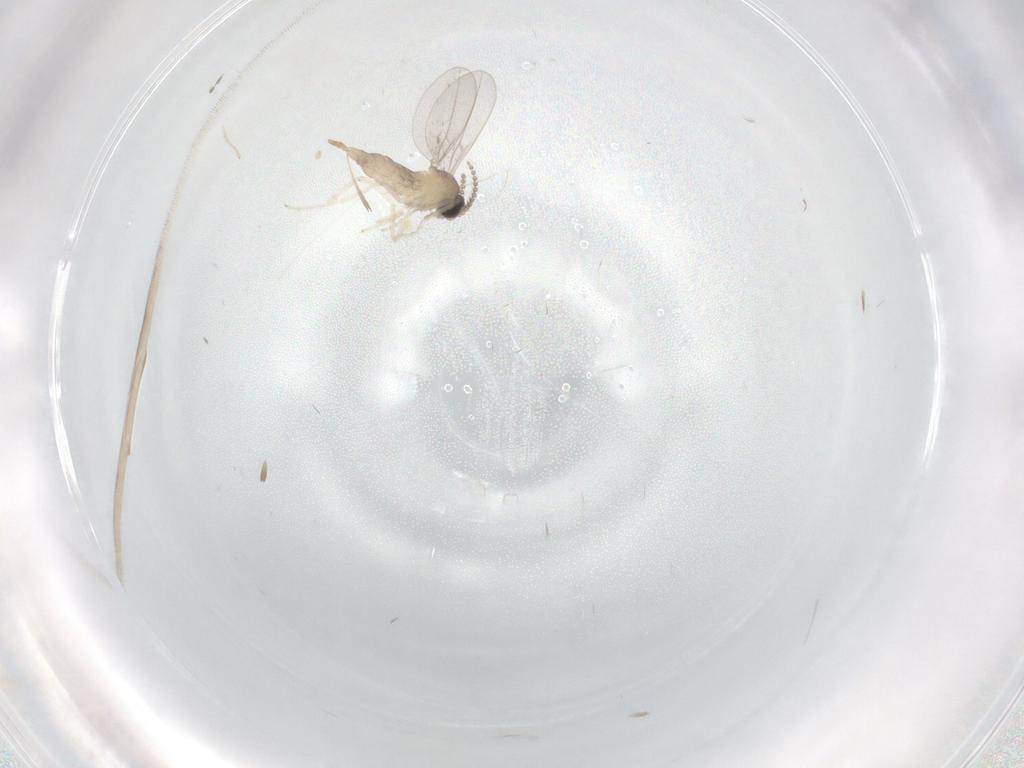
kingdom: Animalia
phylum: Arthropoda
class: Insecta
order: Diptera
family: Cecidomyiidae
